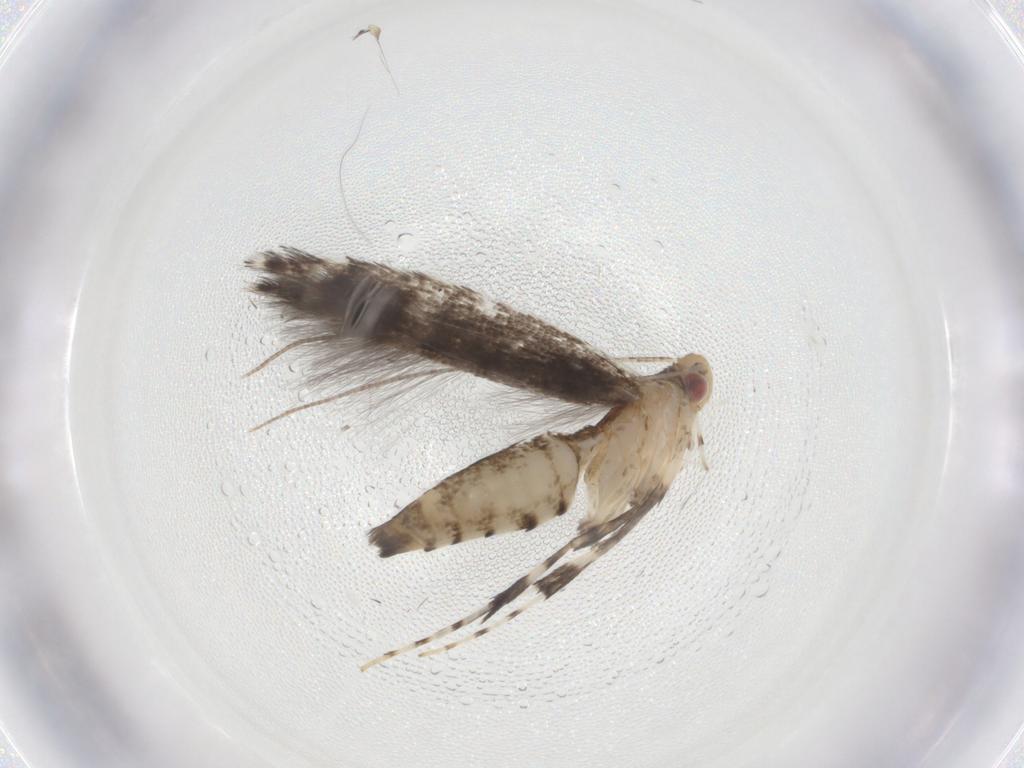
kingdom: Animalia
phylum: Arthropoda
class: Insecta
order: Lepidoptera
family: Gracillariidae
